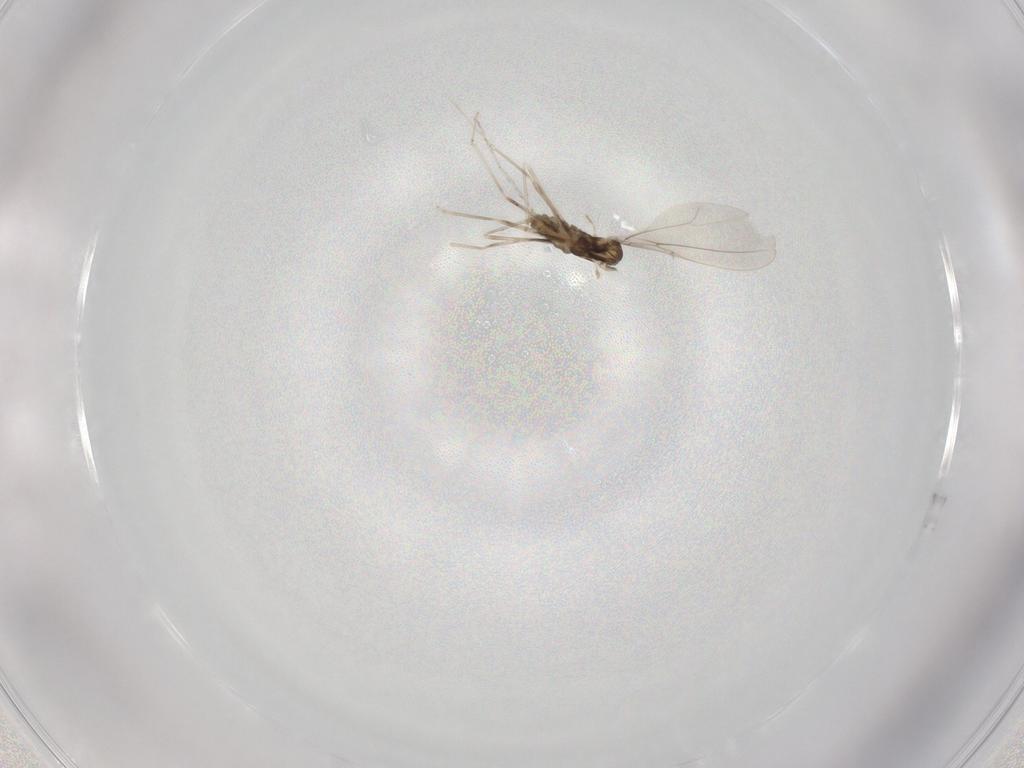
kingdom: Animalia
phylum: Arthropoda
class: Insecta
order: Diptera
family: Cecidomyiidae
